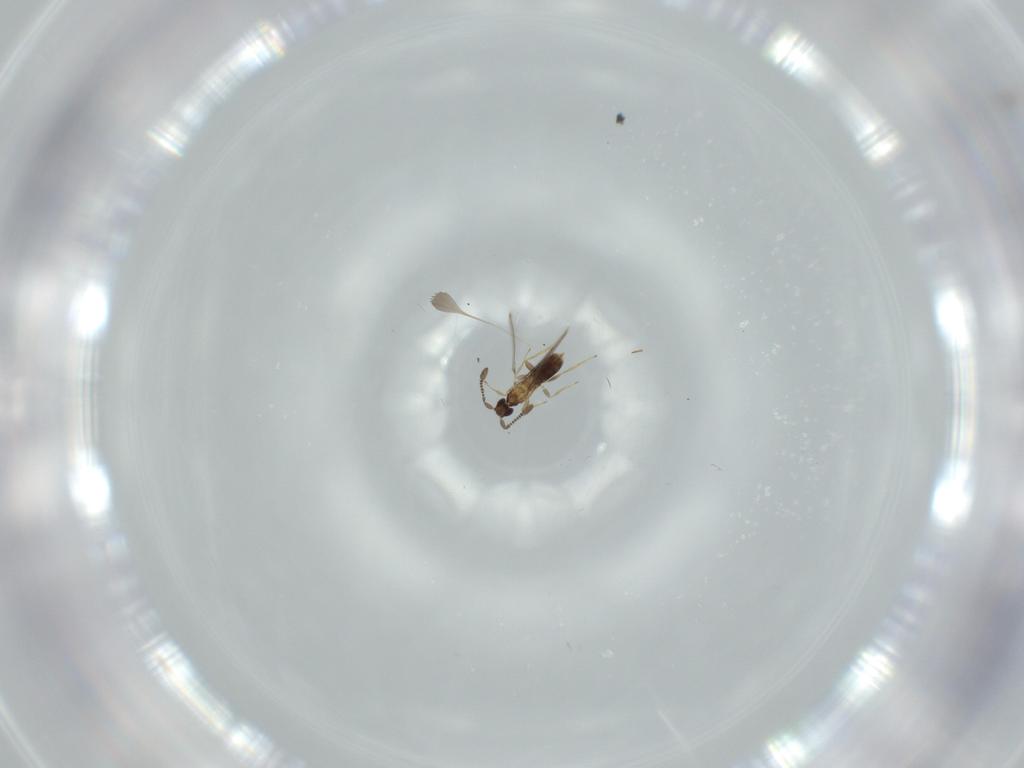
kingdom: Animalia
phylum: Arthropoda
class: Insecta
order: Hymenoptera
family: Mymaridae
